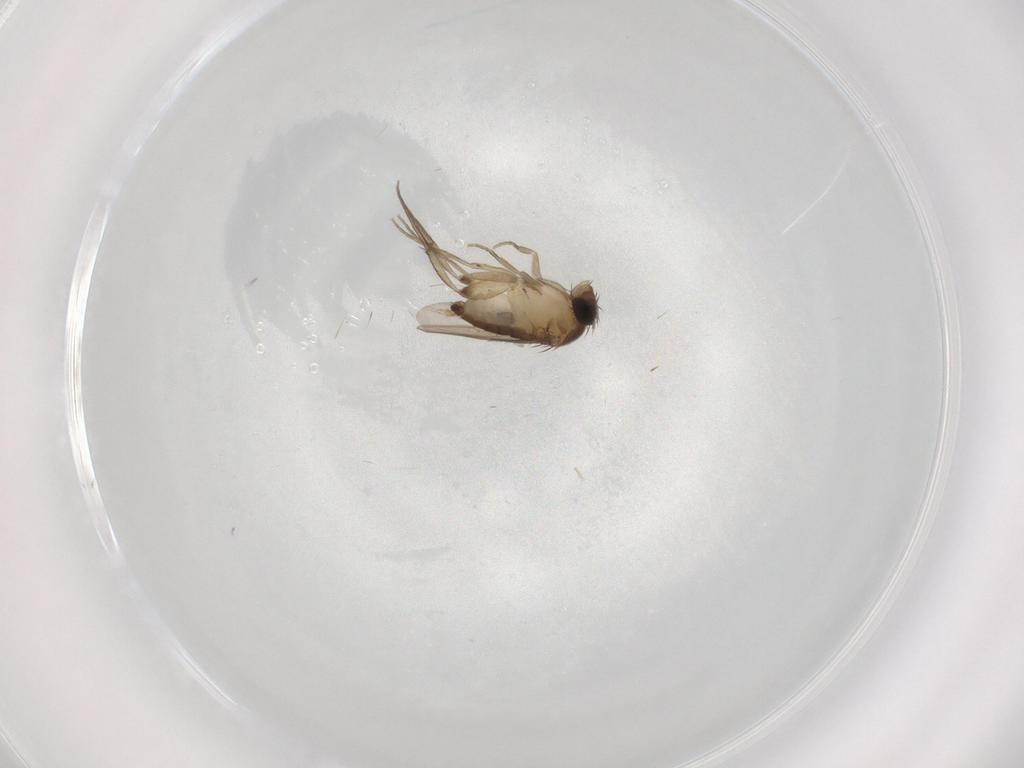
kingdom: Animalia
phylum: Arthropoda
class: Insecta
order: Diptera
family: Phoridae
